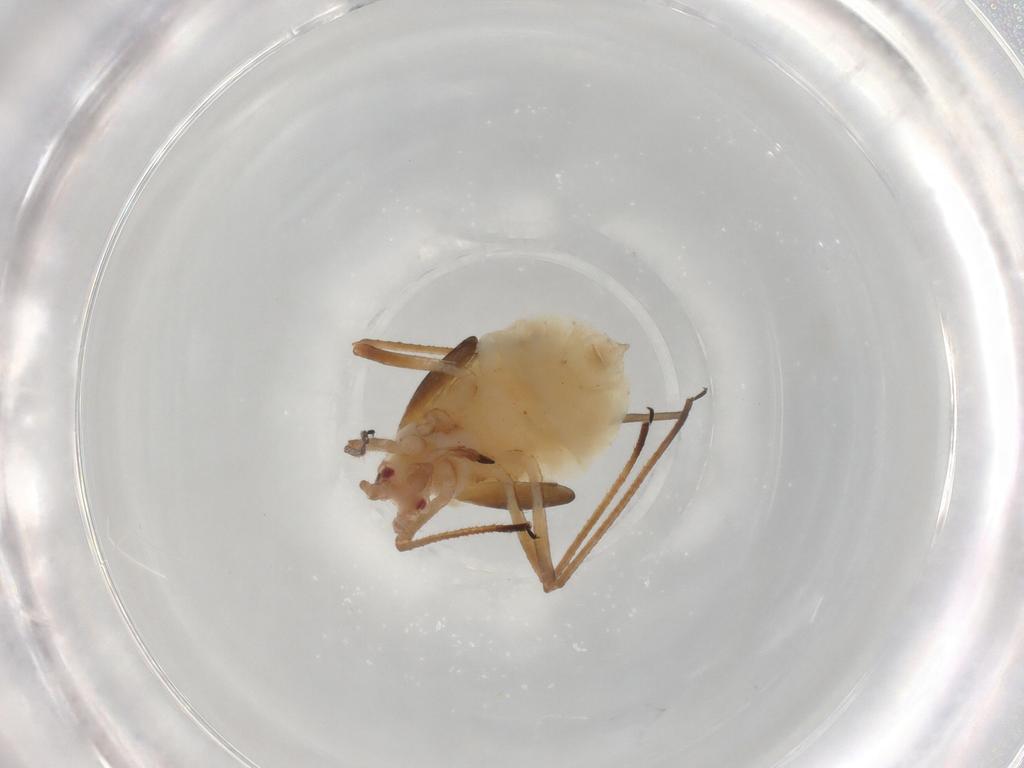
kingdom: Animalia
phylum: Arthropoda
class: Insecta
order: Hemiptera
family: Aphididae
